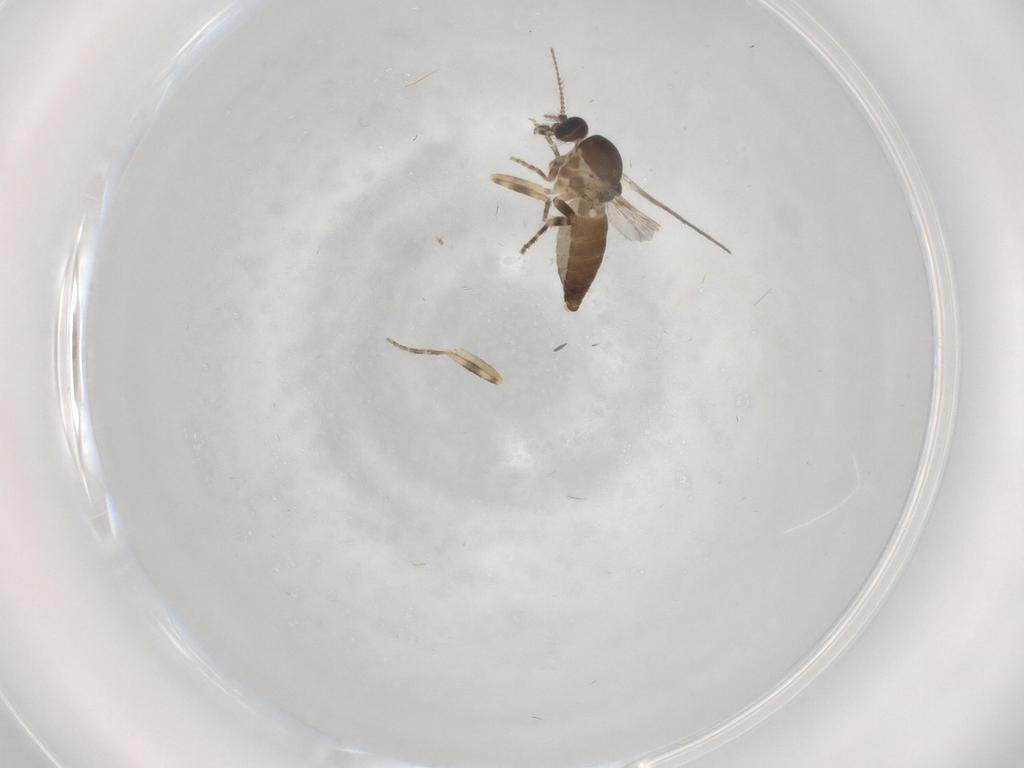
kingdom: Animalia
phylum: Arthropoda
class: Insecta
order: Diptera
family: Ceratopogonidae
